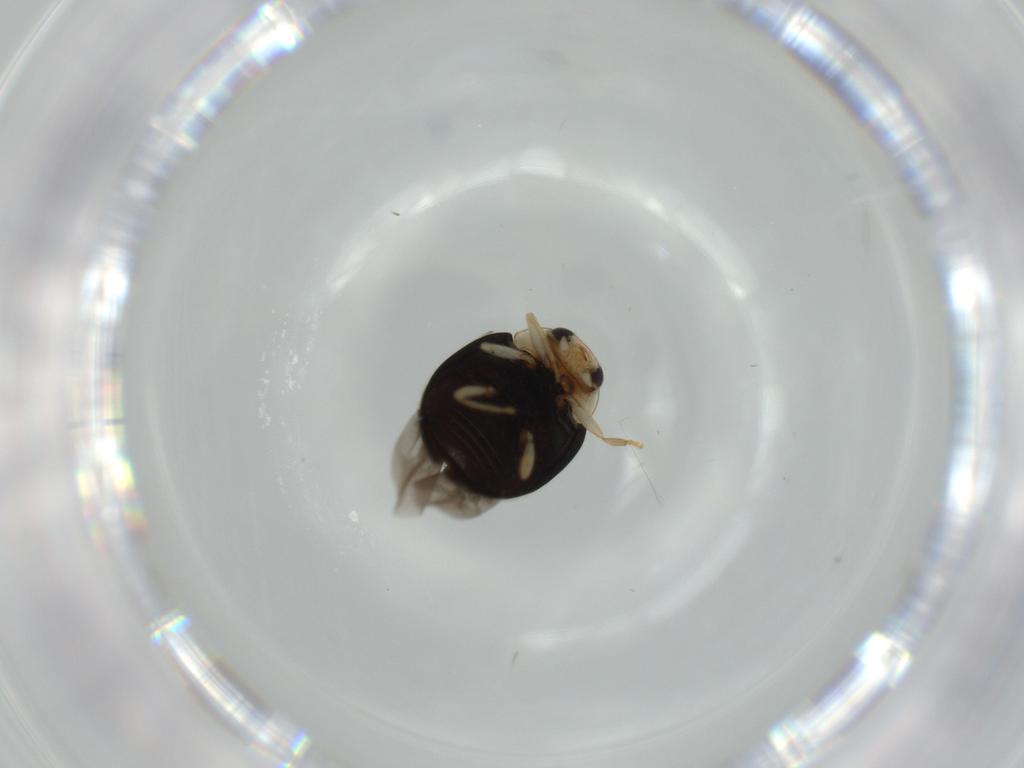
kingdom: Animalia
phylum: Arthropoda
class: Insecta
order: Coleoptera
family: Coccinellidae
